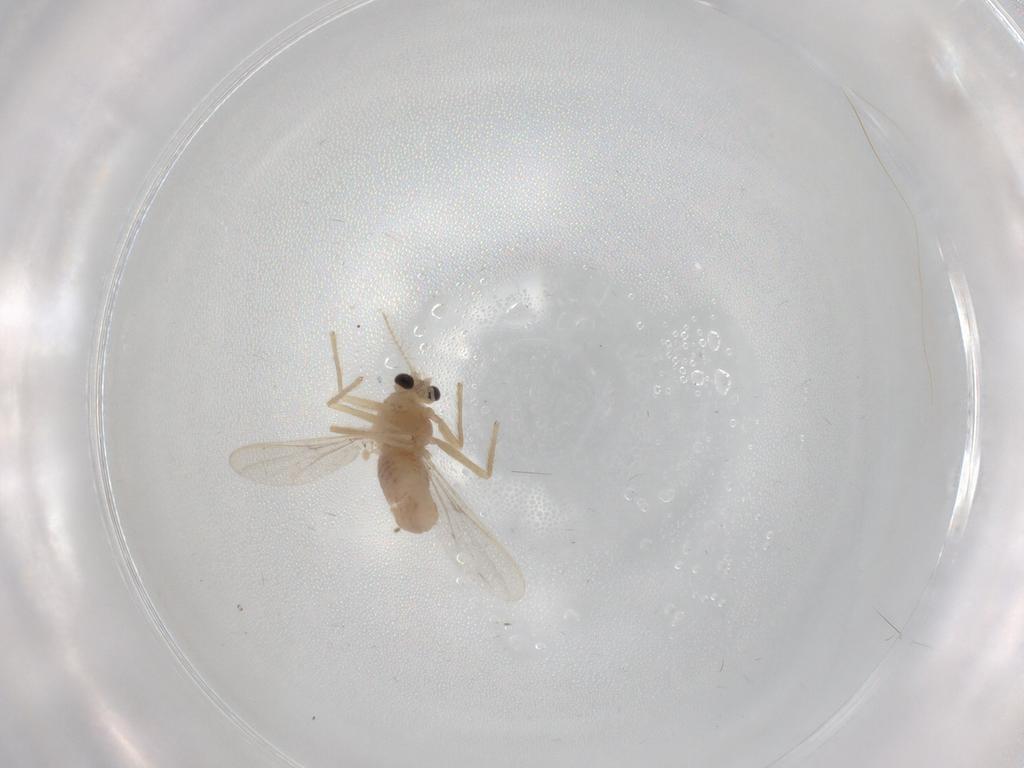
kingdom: Animalia
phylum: Arthropoda
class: Insecta
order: Diptera
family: Chironomidae
